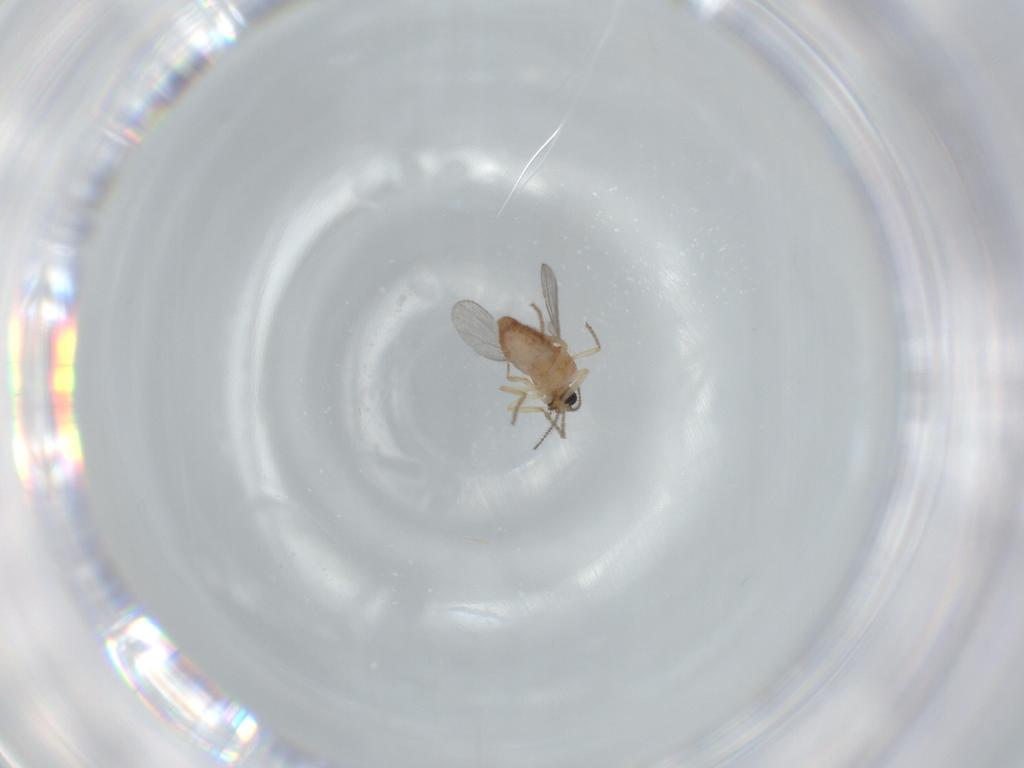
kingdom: Animalia
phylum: Arthropoda
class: Insecta
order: Diptera
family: Ceratopogonidae
